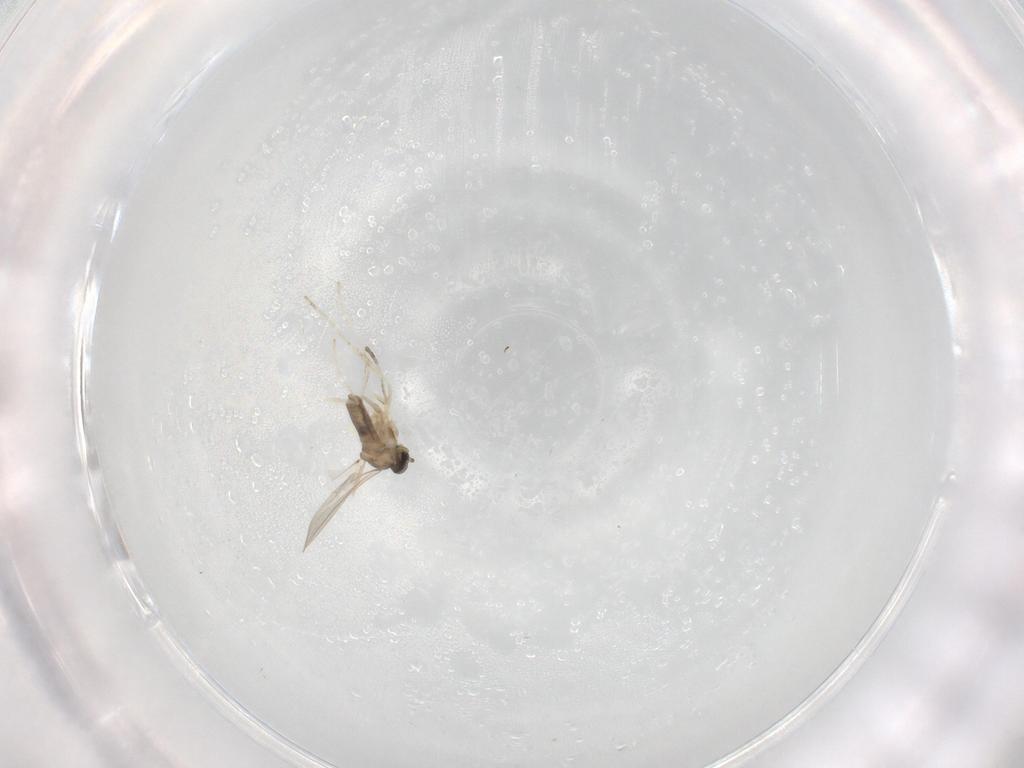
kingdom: Animalia
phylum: Arthropoda
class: Insecta
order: Diptera
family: Cecidomyiidae
